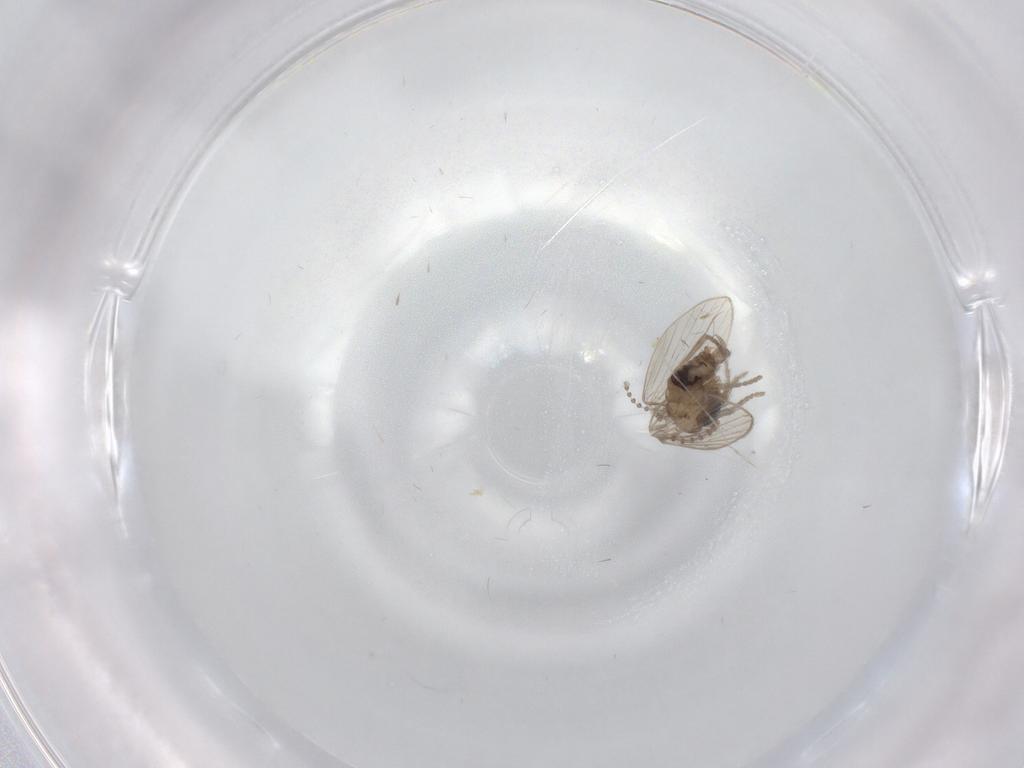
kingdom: Animalia
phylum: Arthropoda
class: Insecta
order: Diptera
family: Psychodidae
